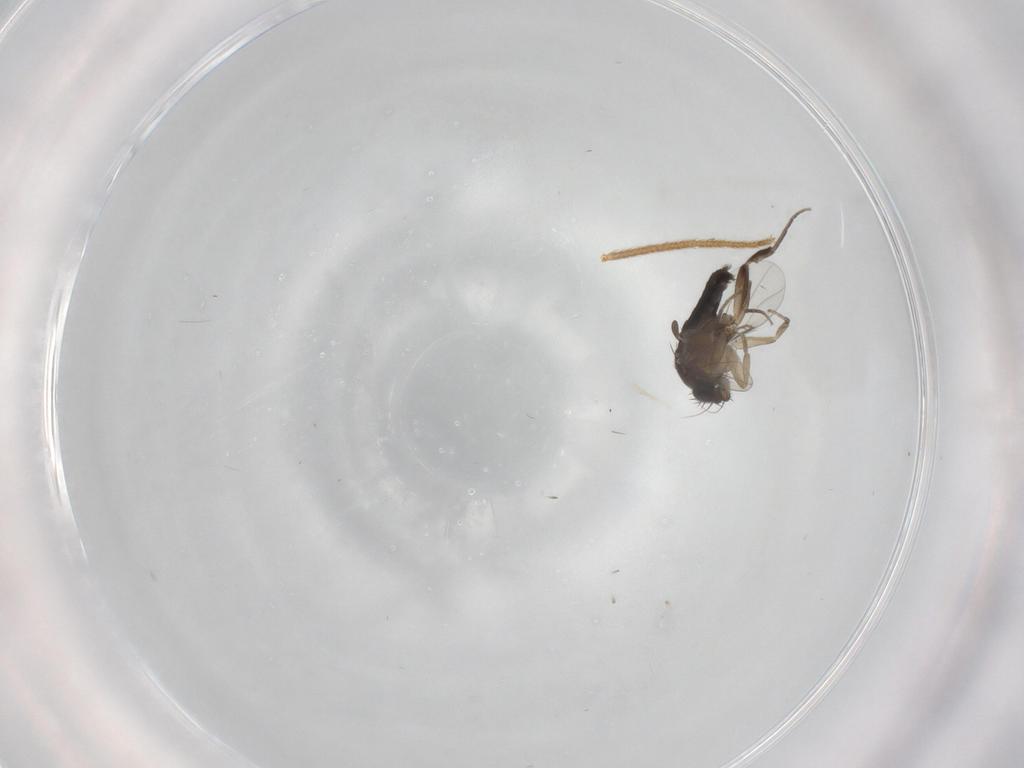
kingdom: Animalia
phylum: Arthropoda
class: Insecta
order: Diptera
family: Phoridae
